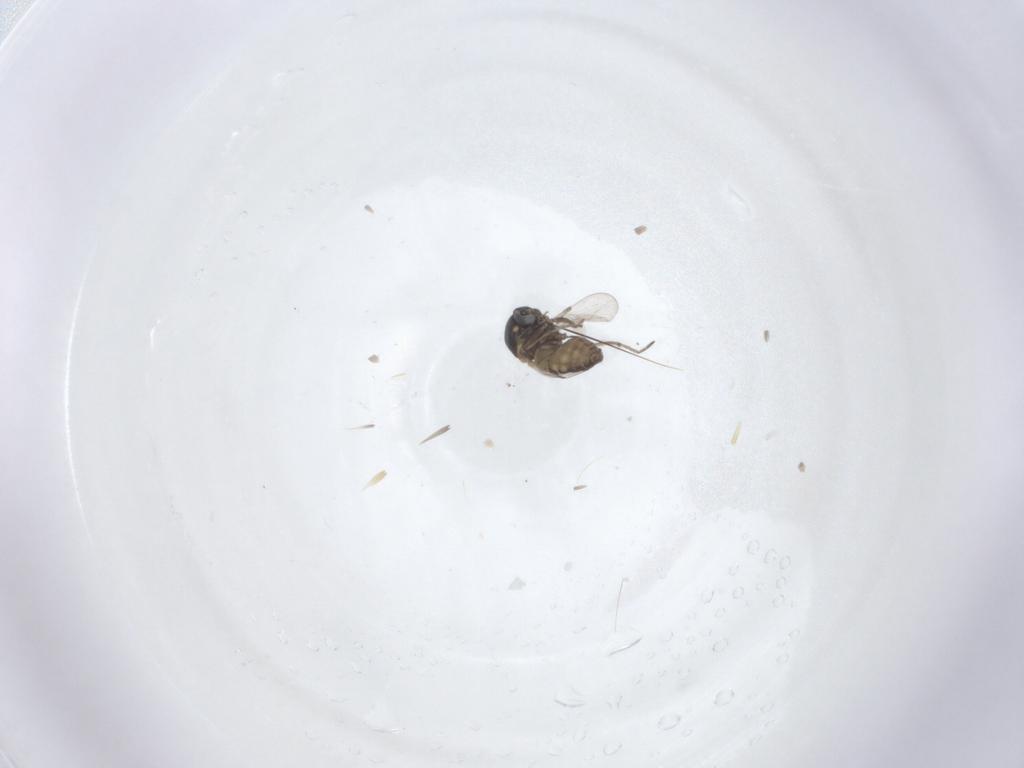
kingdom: Animalia
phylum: Arthropoda
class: Insecta
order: Diptera
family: Ceratopogonidae
